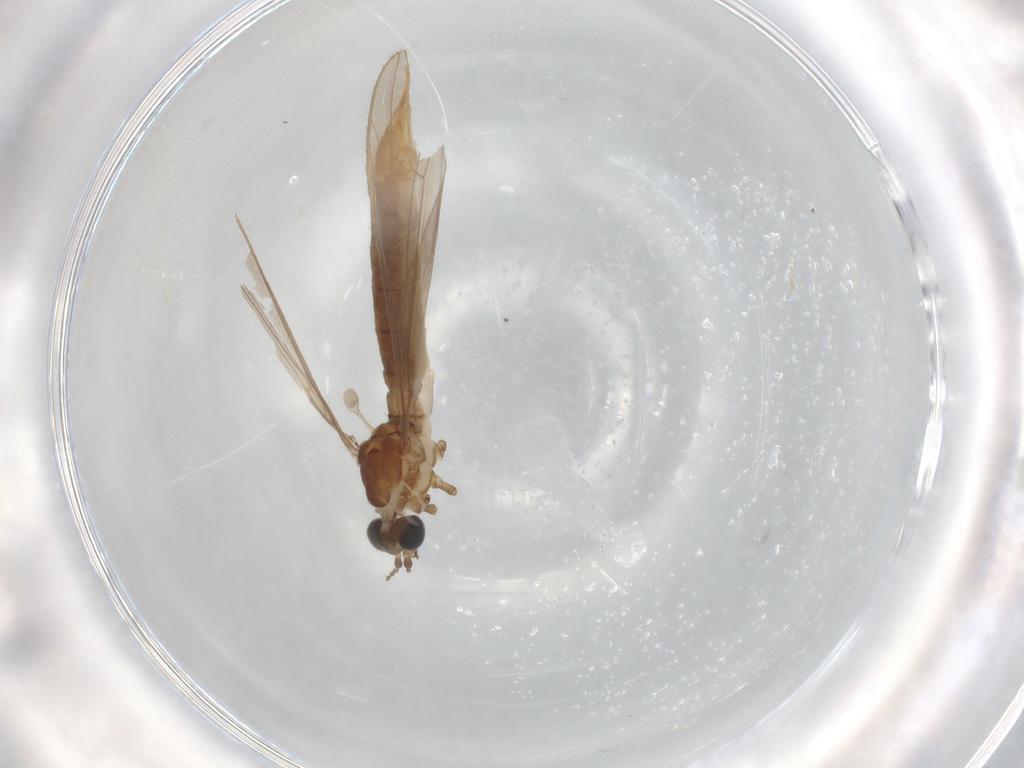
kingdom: Animalia
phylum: Arthropoda
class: Insecta
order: Diptera
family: Limoniidae
